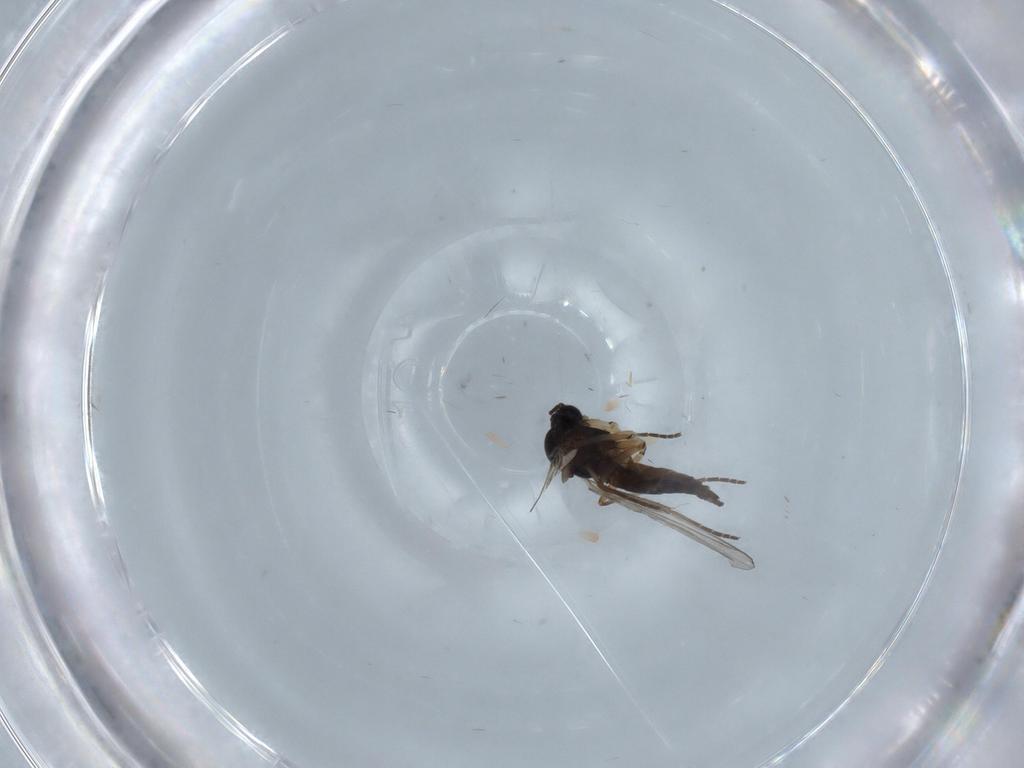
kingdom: Animalia
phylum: Arthropoda
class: Insecta
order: Diptera
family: Sciaridae
